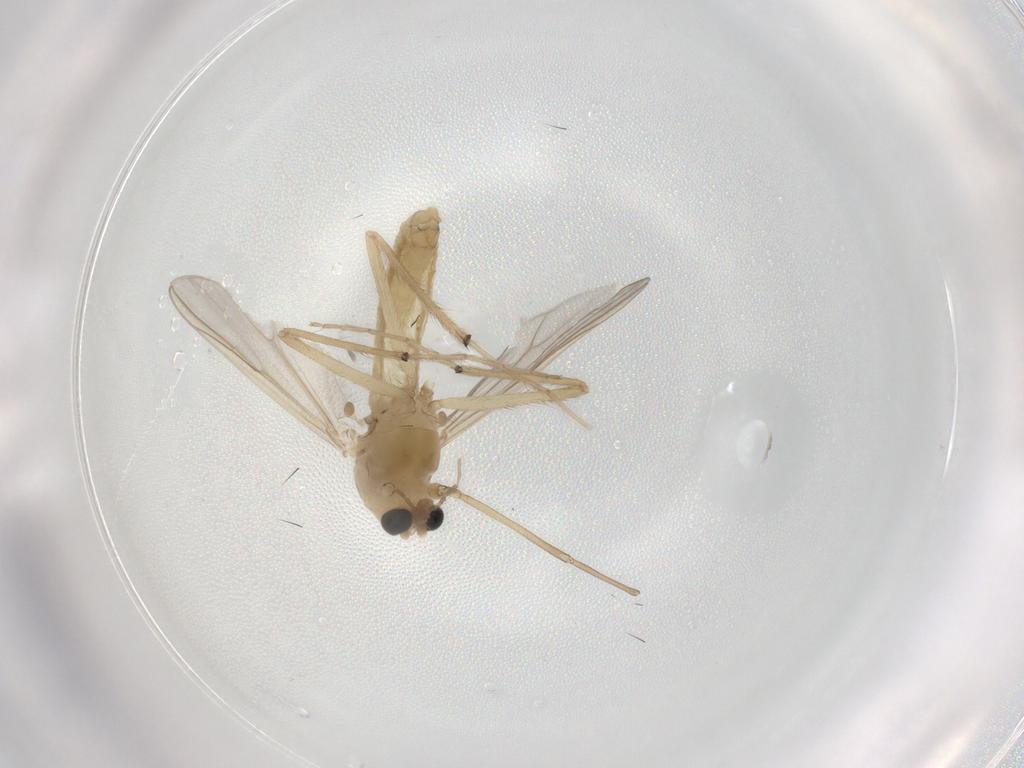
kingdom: Animalia
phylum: Arthropoda
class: Insecta
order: Diptera
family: Chironomidae
